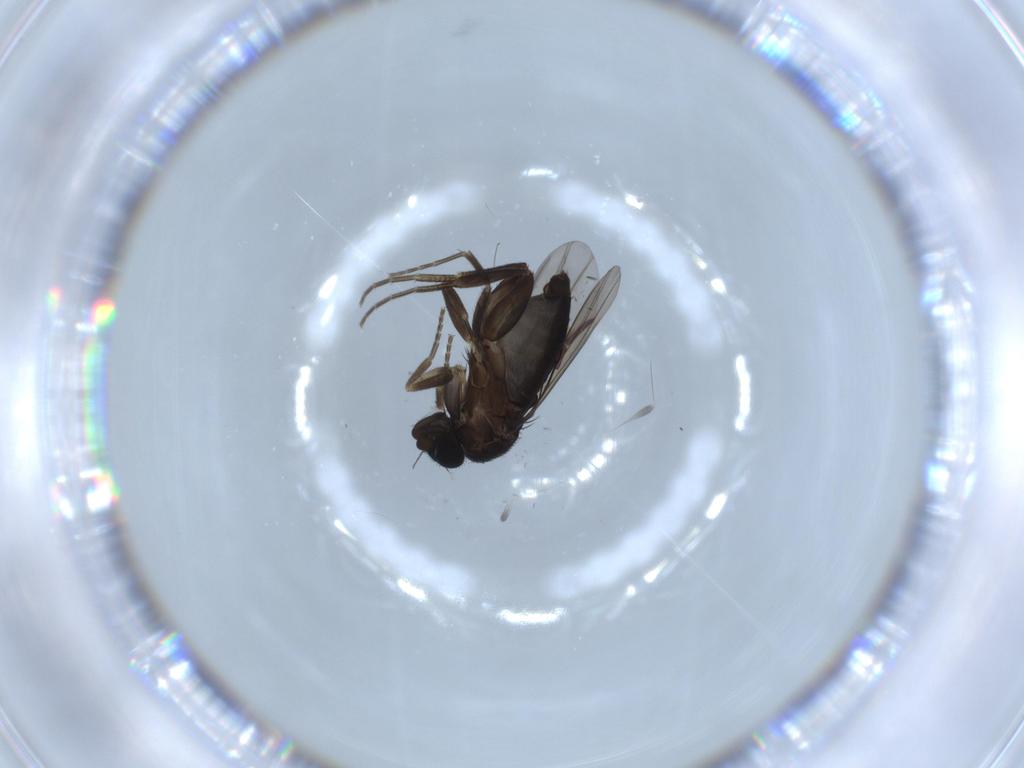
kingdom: Animalia
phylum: Arthropoda
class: Insecta
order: Diptera
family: Phoridae
